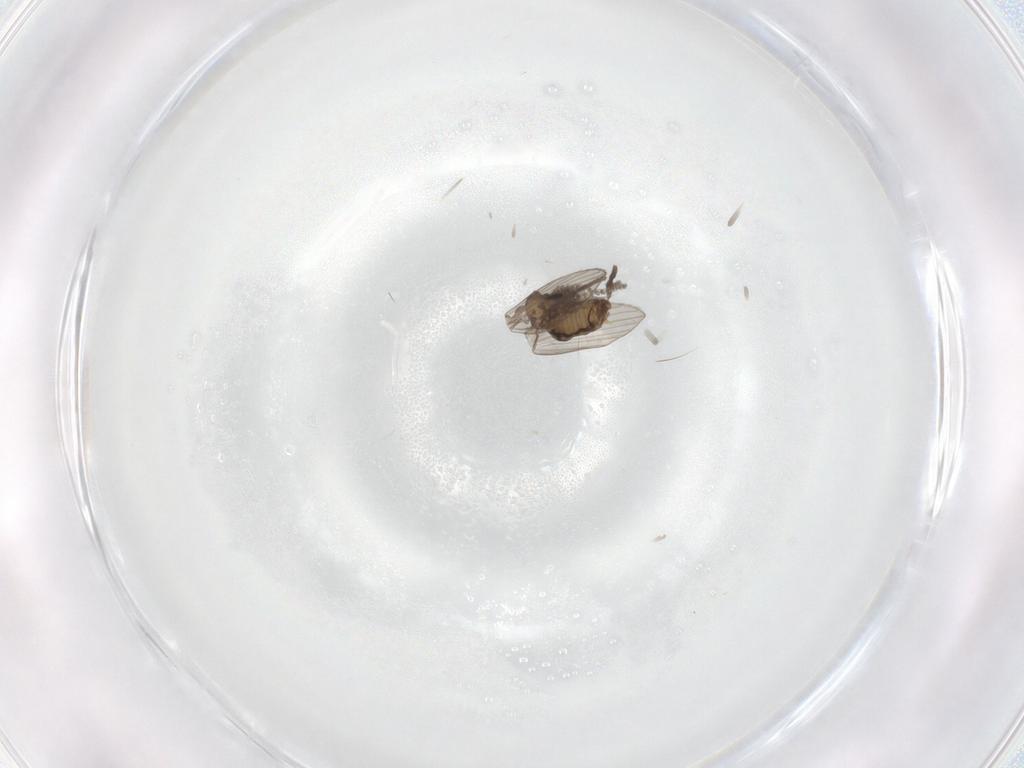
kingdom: Animalia
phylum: Arthropoda
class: Insecta
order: Diptera
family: Psychodidae
